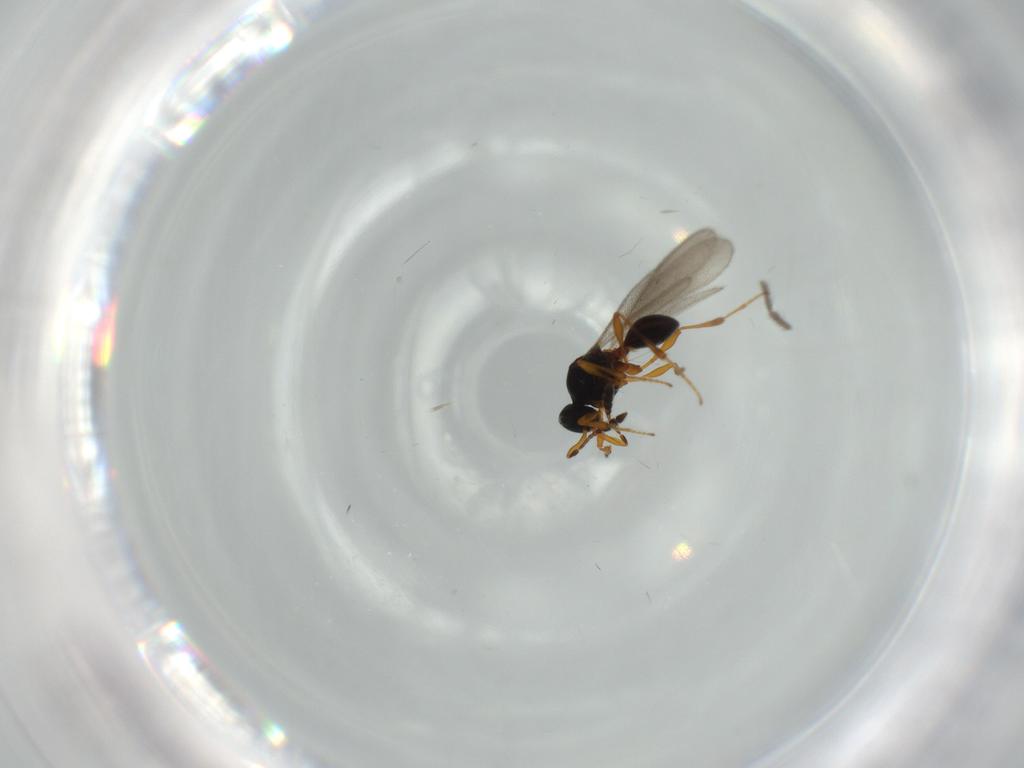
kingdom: Animalia
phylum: Arthropoda
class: Insecta
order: Hymenoptera
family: Platygastridae
